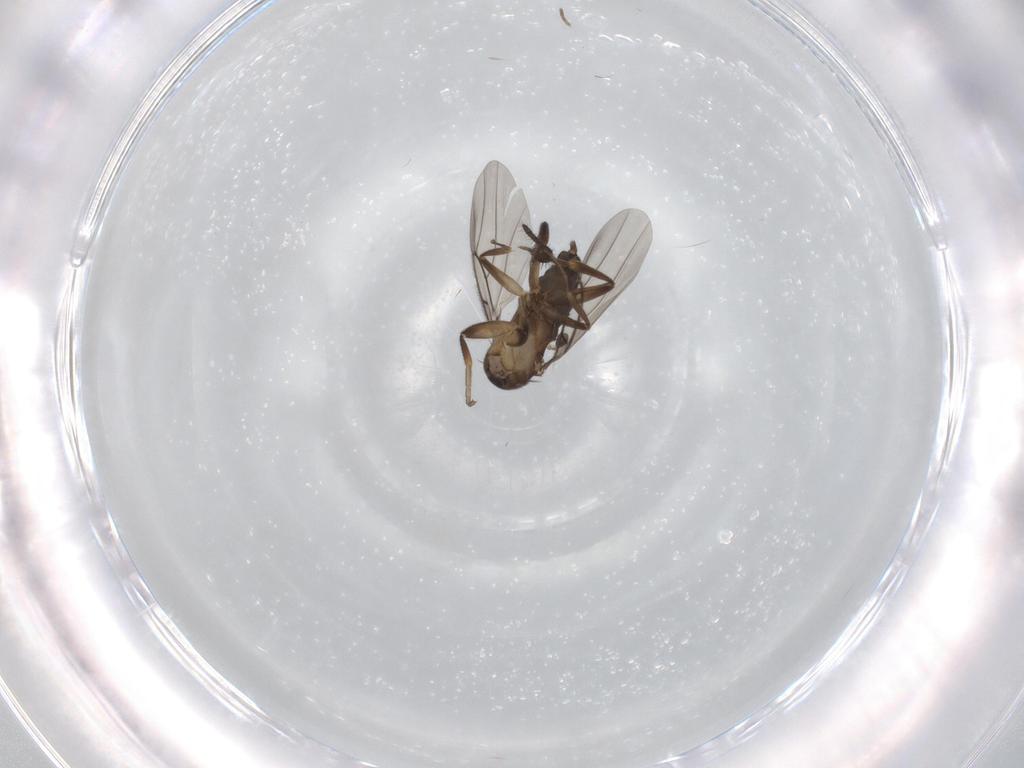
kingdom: Animalia
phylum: Arthropoda
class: Insecta
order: Diptera
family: Phoridae
